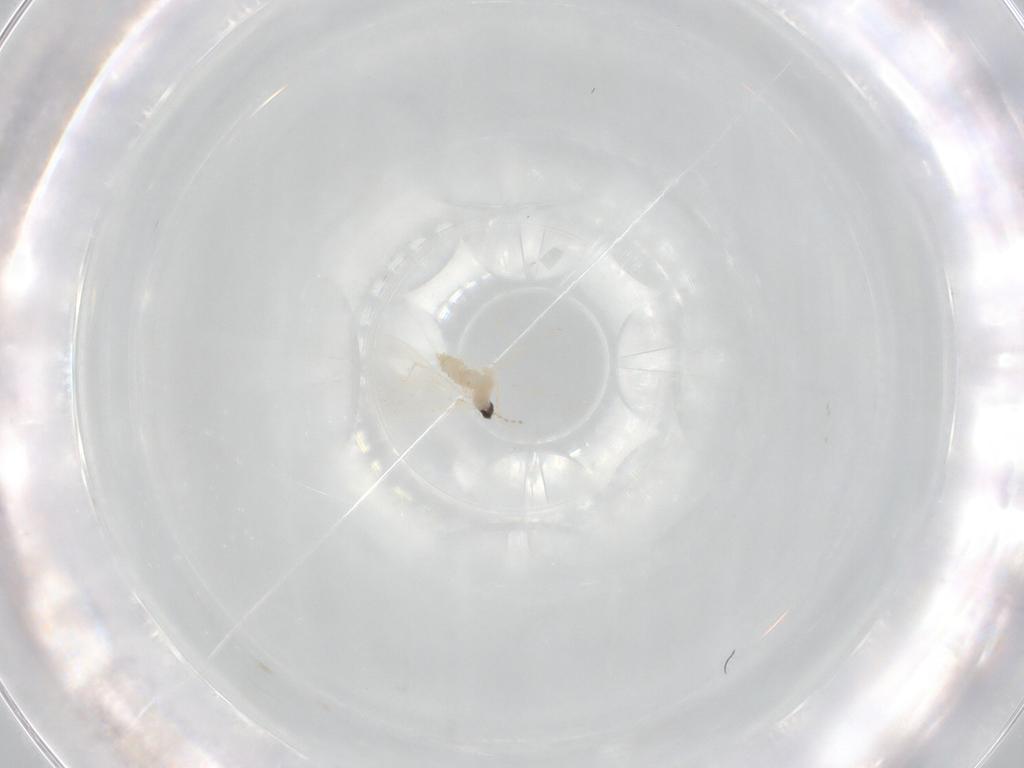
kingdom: Animalia
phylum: Arthropoda
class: Insecta
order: Diptera
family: Cecidomyiidae
